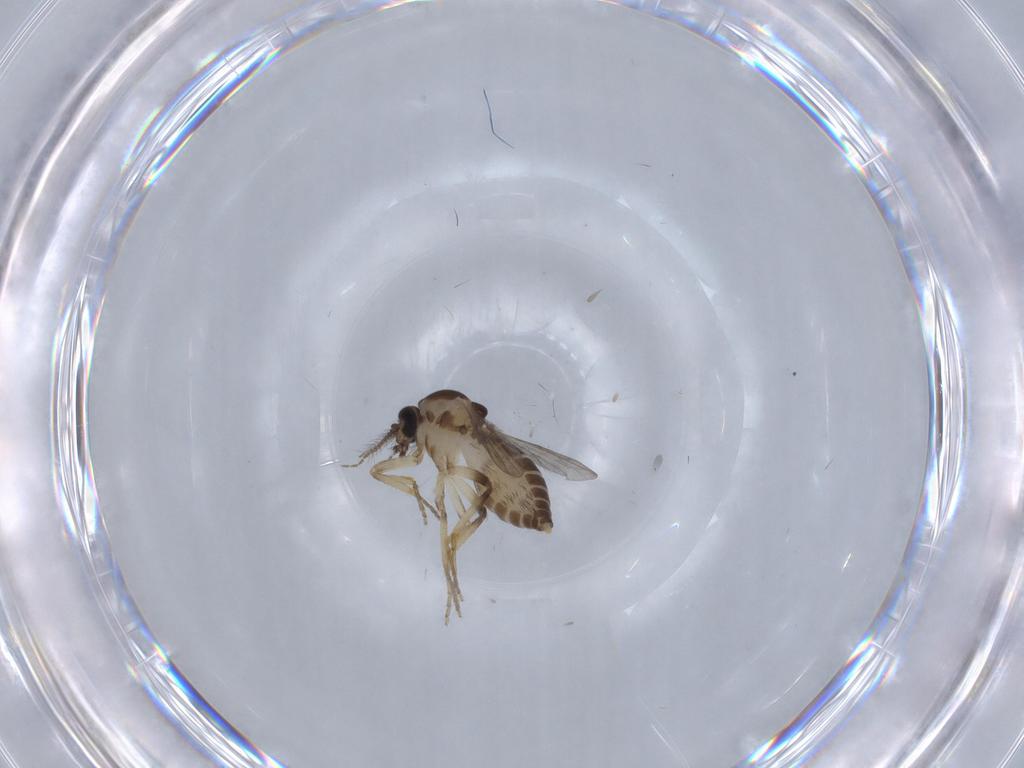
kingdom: Animalia
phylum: Arthropoda
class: Insecta
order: Diptera
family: Ceratopogonidae
